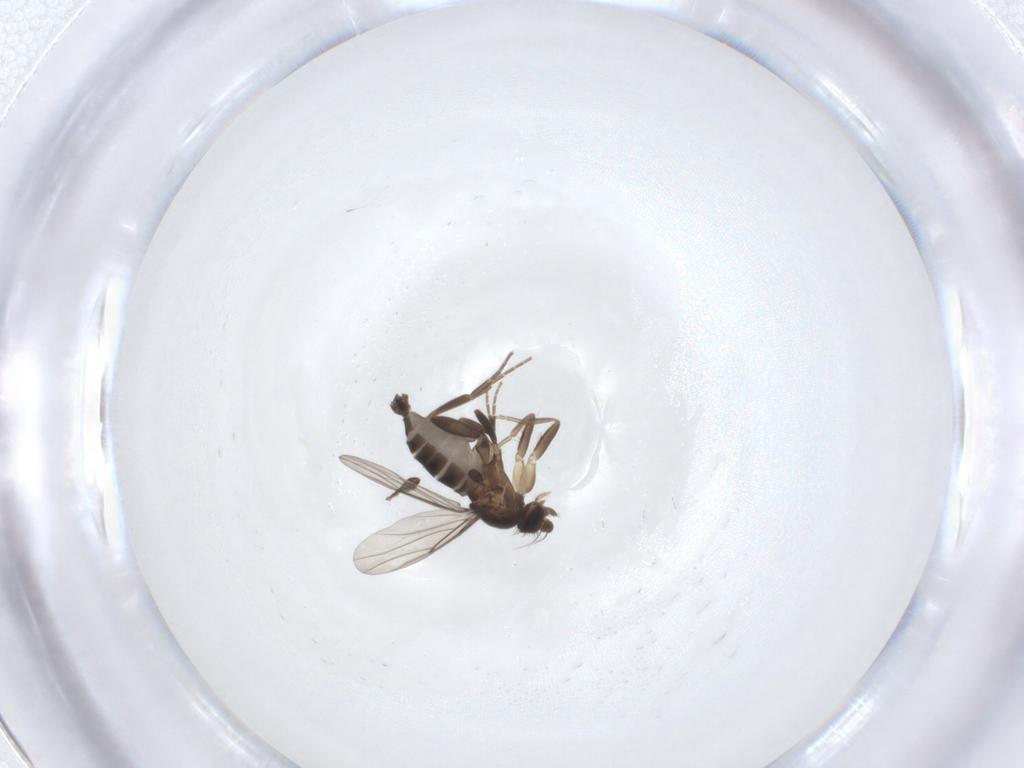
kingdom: Animalia
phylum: Arthropoda
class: Insecta
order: Diptera
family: Phoridae
